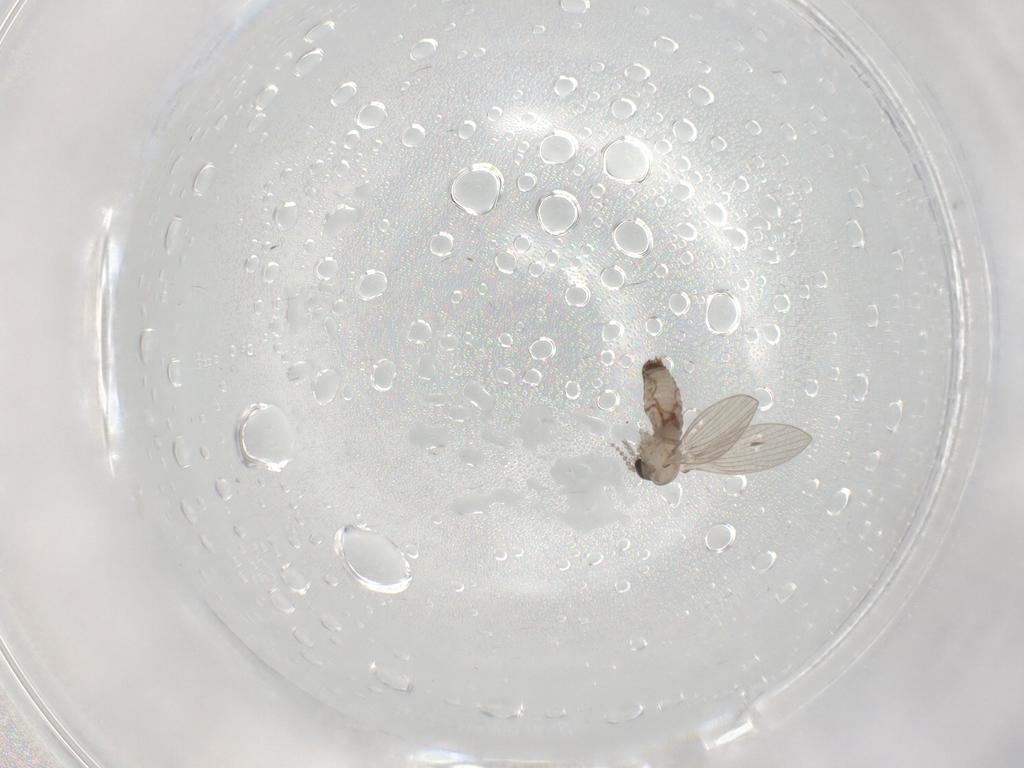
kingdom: Animalia
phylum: Arthropoda
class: Insecta
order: Diptera
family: Psychodidae
